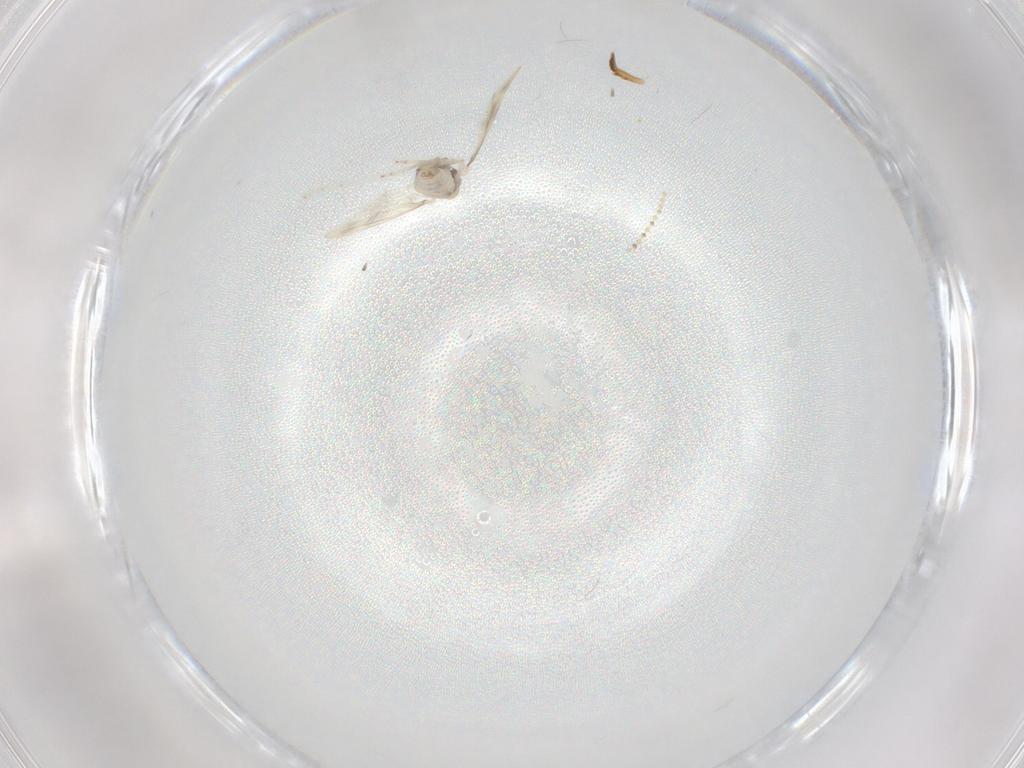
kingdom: Animalia
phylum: Arthropoda
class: Insecta
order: Diptera
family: Cecidomyiidae
